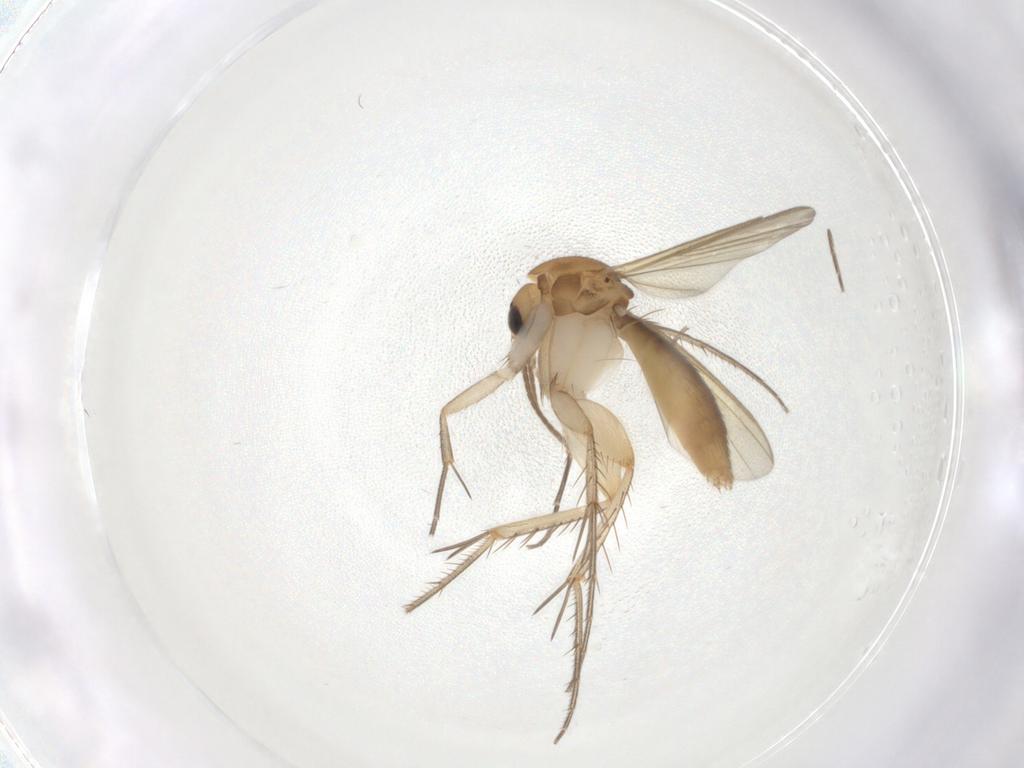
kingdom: Animalia
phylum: Arthropoda
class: Insecta
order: Diptera
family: Mycetophilidae
